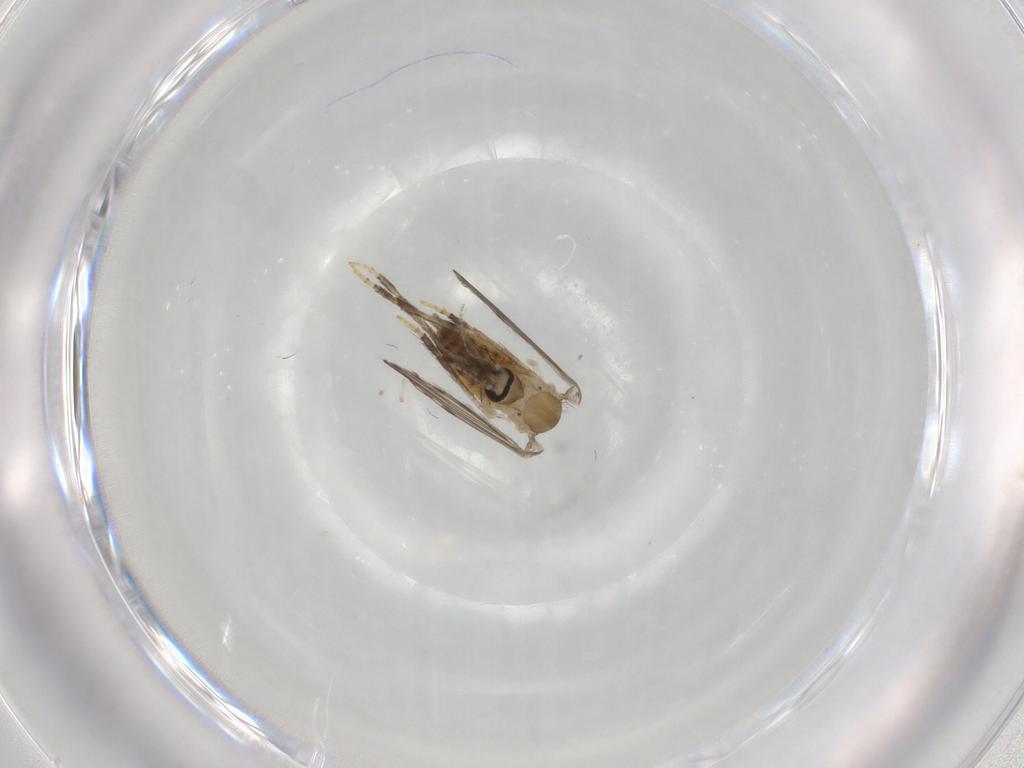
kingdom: Animalia
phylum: Arthropoda
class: Insecta
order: Diptera
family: Psychodidae
